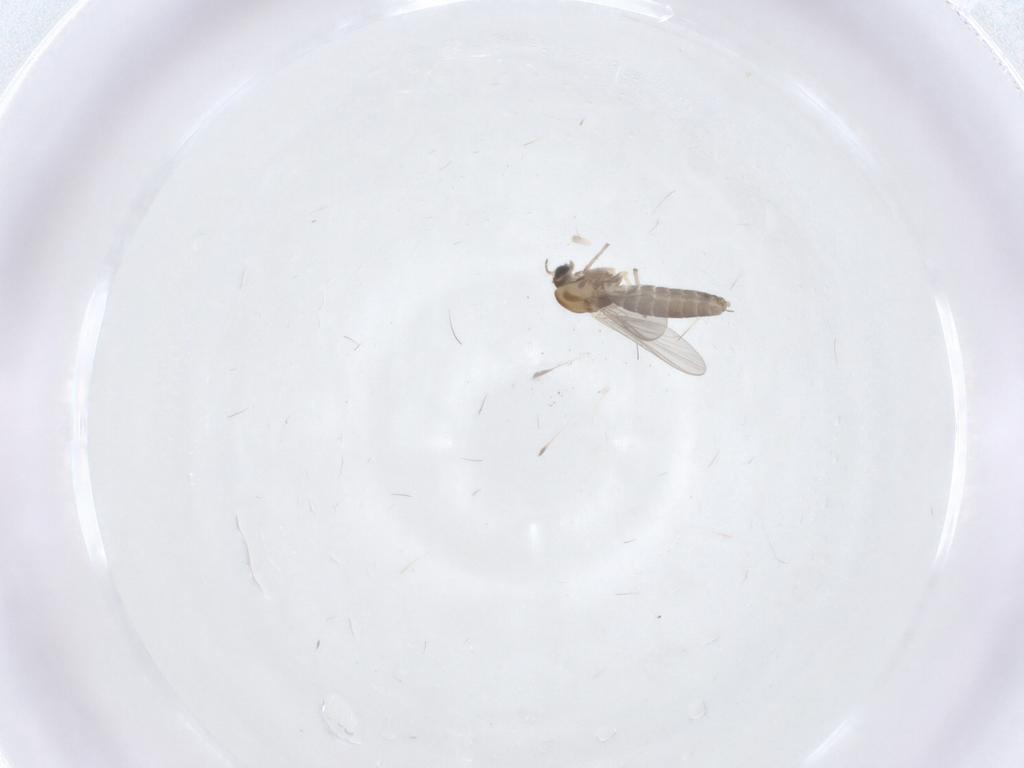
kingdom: Animalia
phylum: Arthropoda
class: Insecta
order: Diptera
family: Chironomidae
